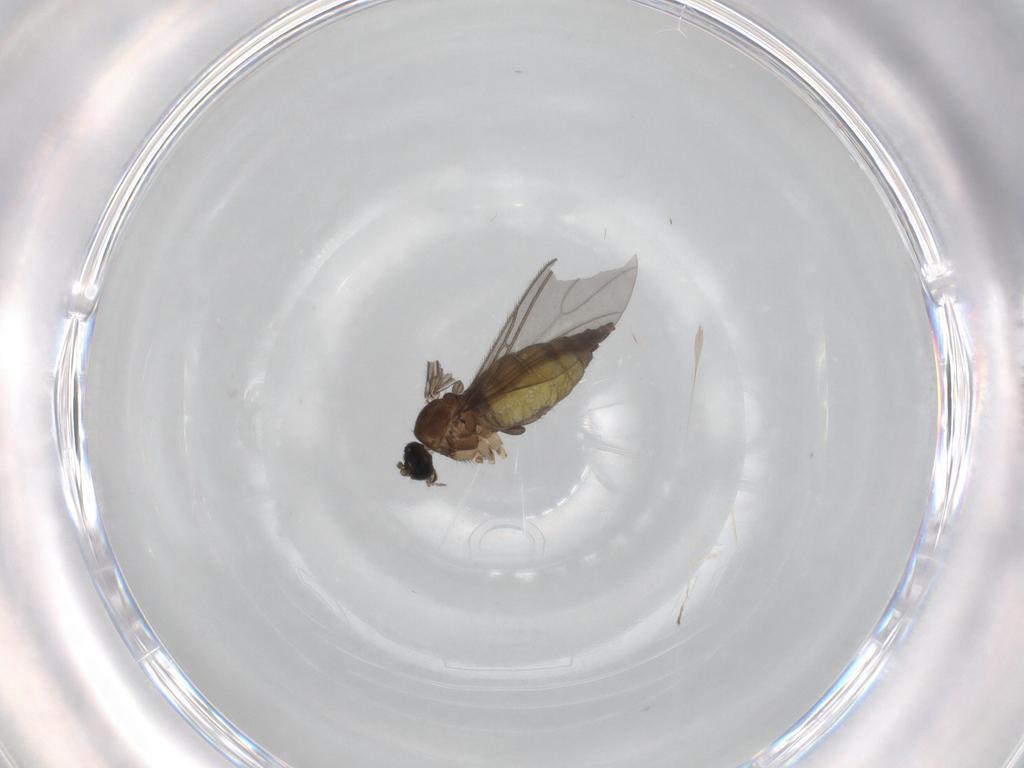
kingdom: Animalia
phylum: Arthropoda
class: Insecta
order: Diptera
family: Sciaridae
